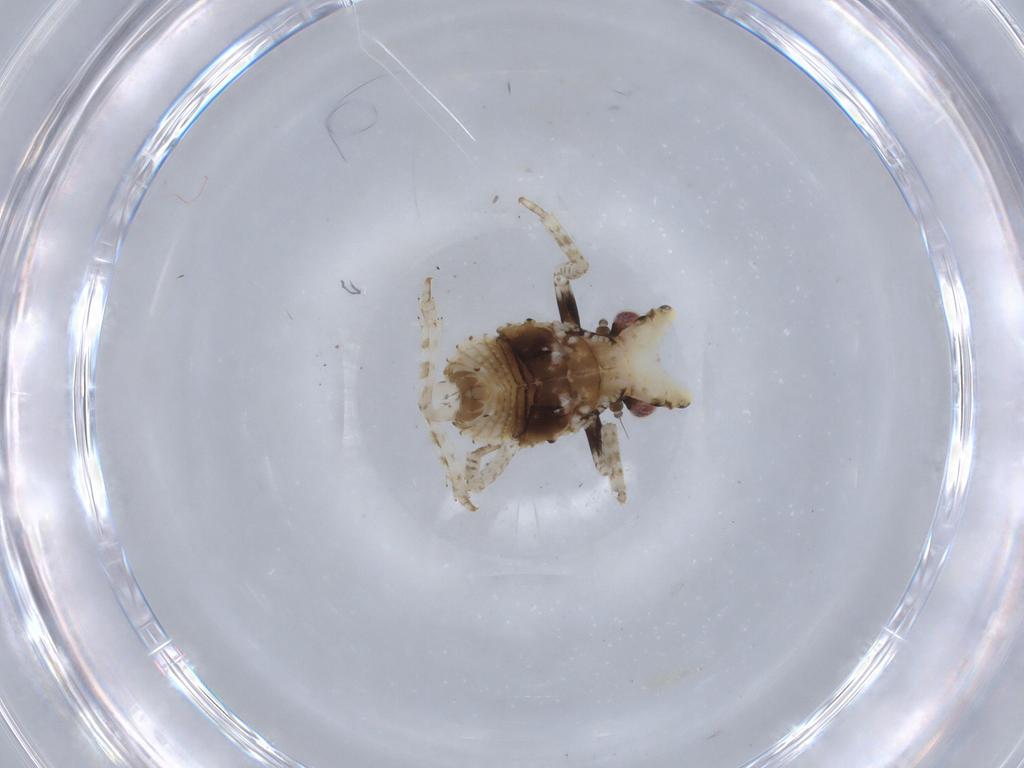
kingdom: Animalia
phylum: Arthropoda
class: Insecta
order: Hemiptera
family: Fulgoridae
